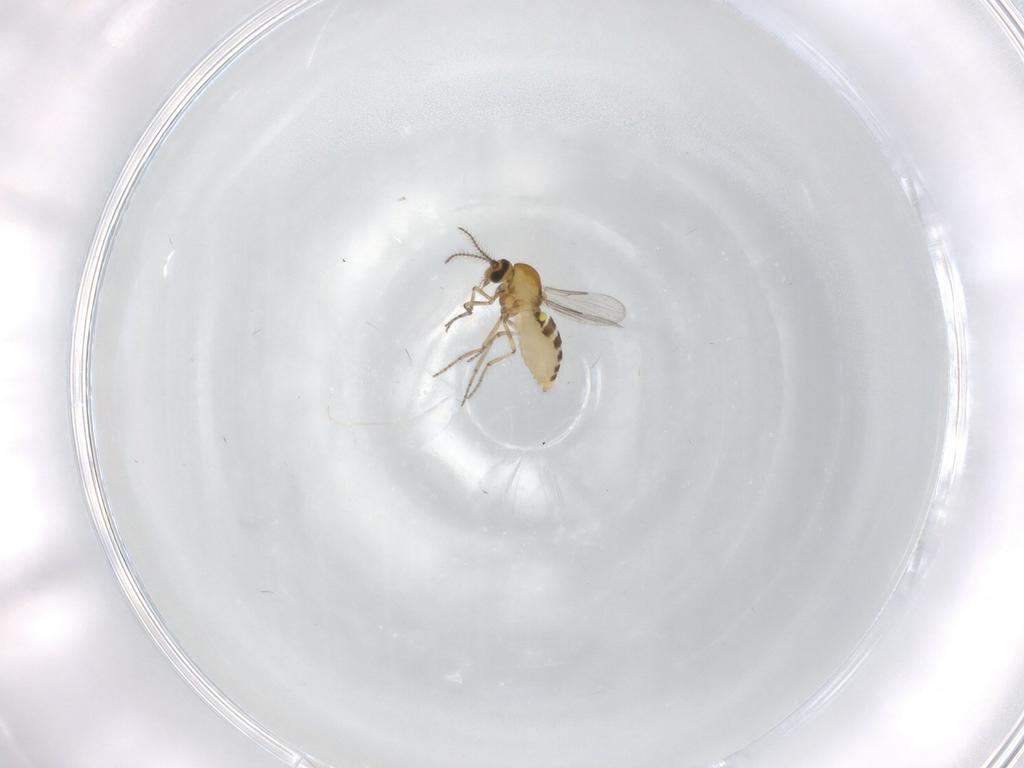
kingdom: Animalia
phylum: Arthropoda
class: Insecta
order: Diptera
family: Ceratopogonidae
